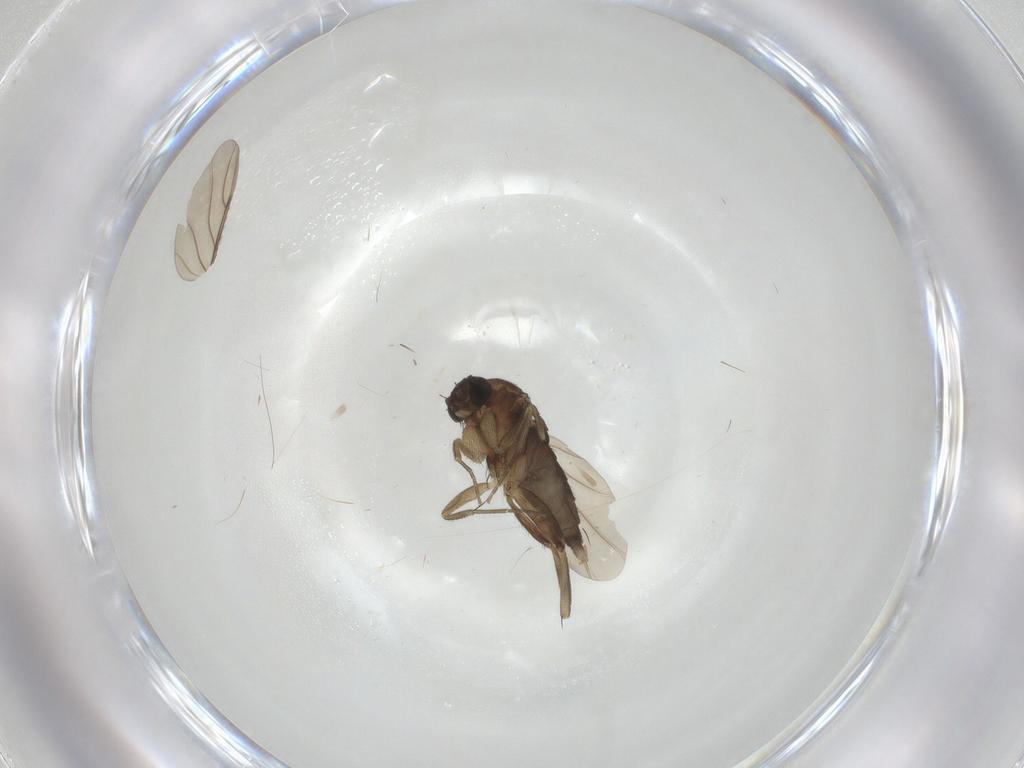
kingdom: Animalia
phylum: Arthropoda
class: Insecta
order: Diptera
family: Phoridae
